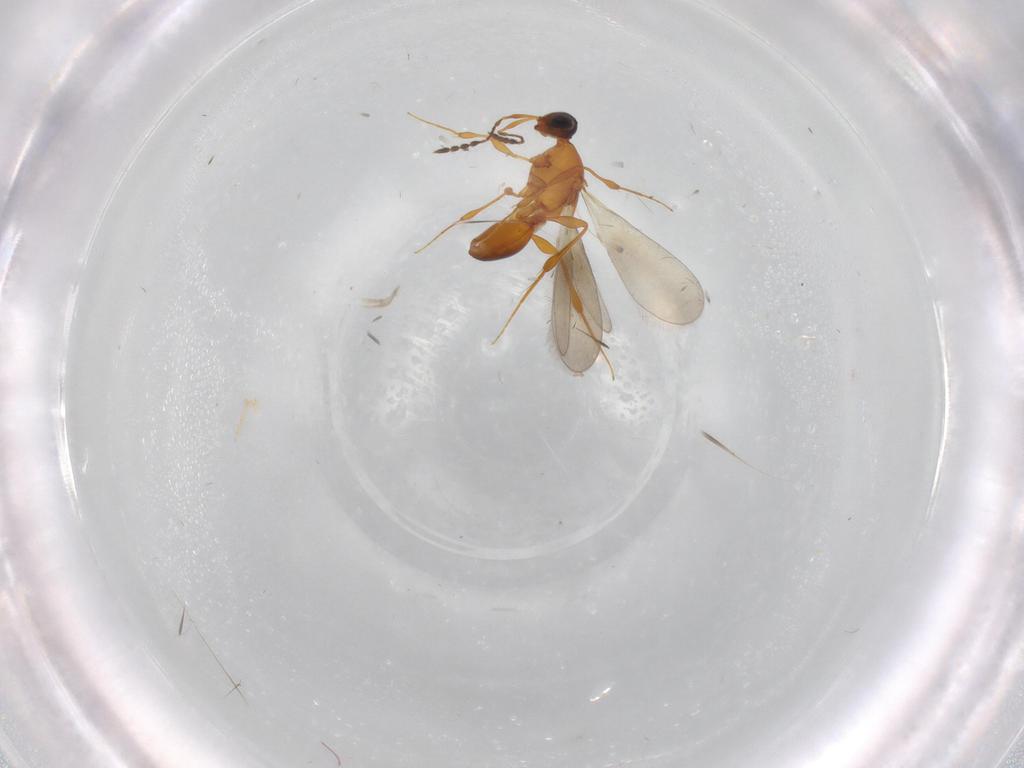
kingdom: Animalia
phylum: Arthropoda
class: Insecta
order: Hymenoptera
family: Platygastridae
